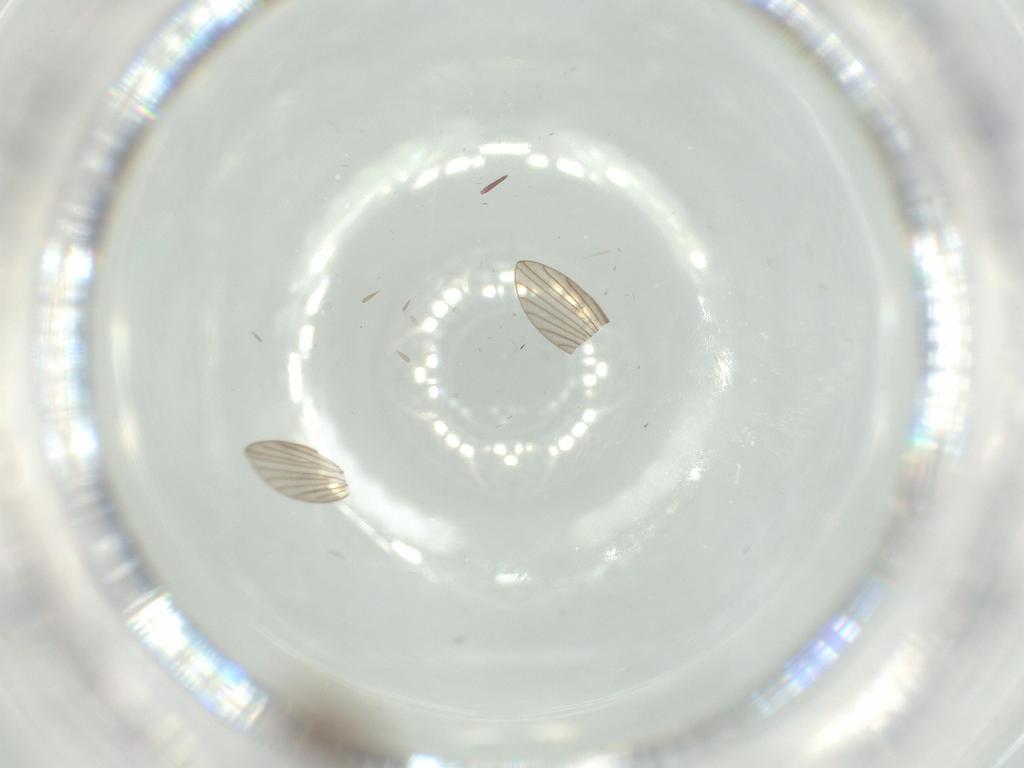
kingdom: Animalia
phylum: Arthropoda
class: Insecta
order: Diptera
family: Psychodidae
